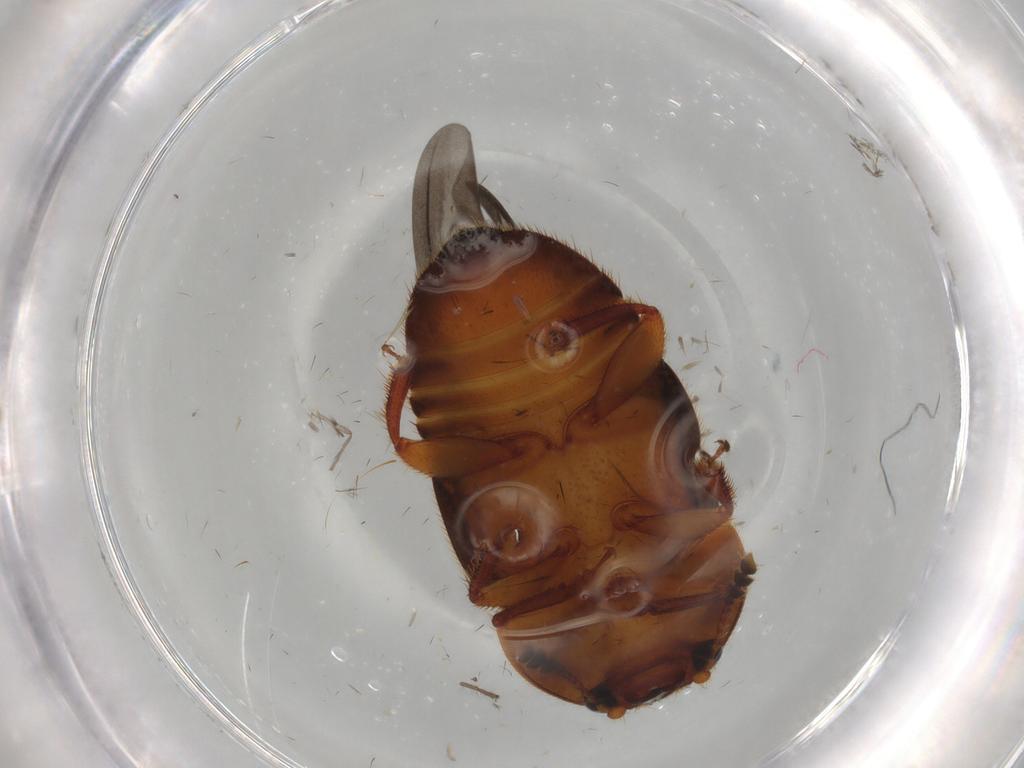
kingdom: Animalia
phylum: Arthropoda
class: Insecta
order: Coleoptera
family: Nitidulidae
